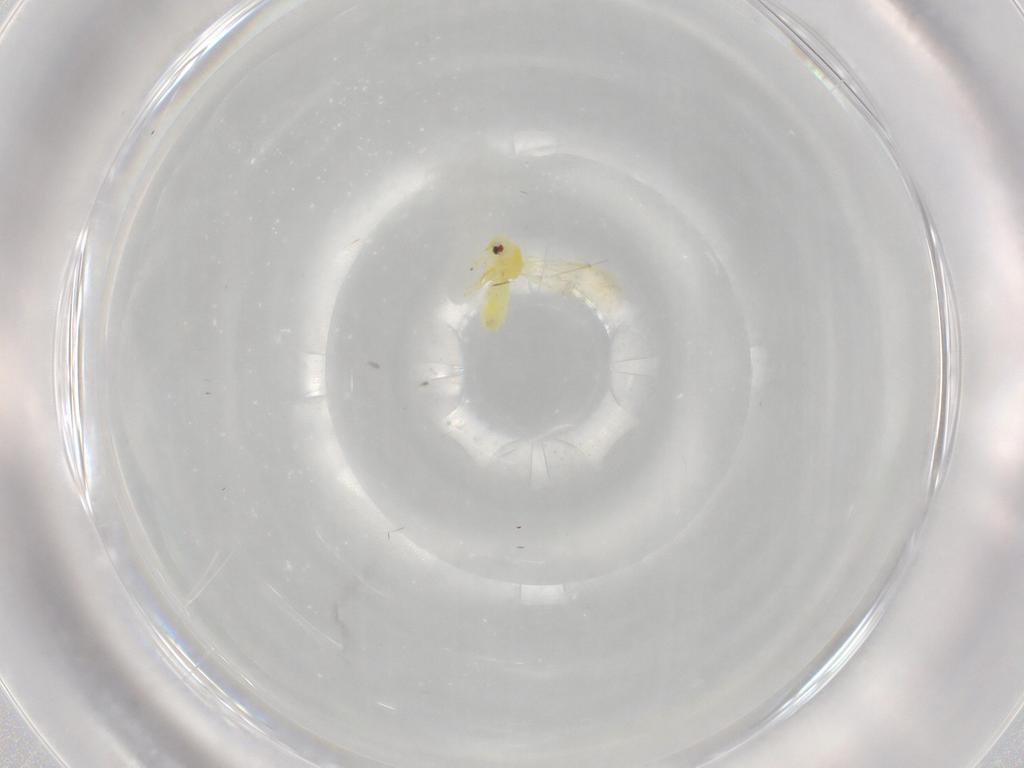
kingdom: Animalia
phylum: Arthropoda
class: Insecta
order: Hemiptera
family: Aleyrodidae
